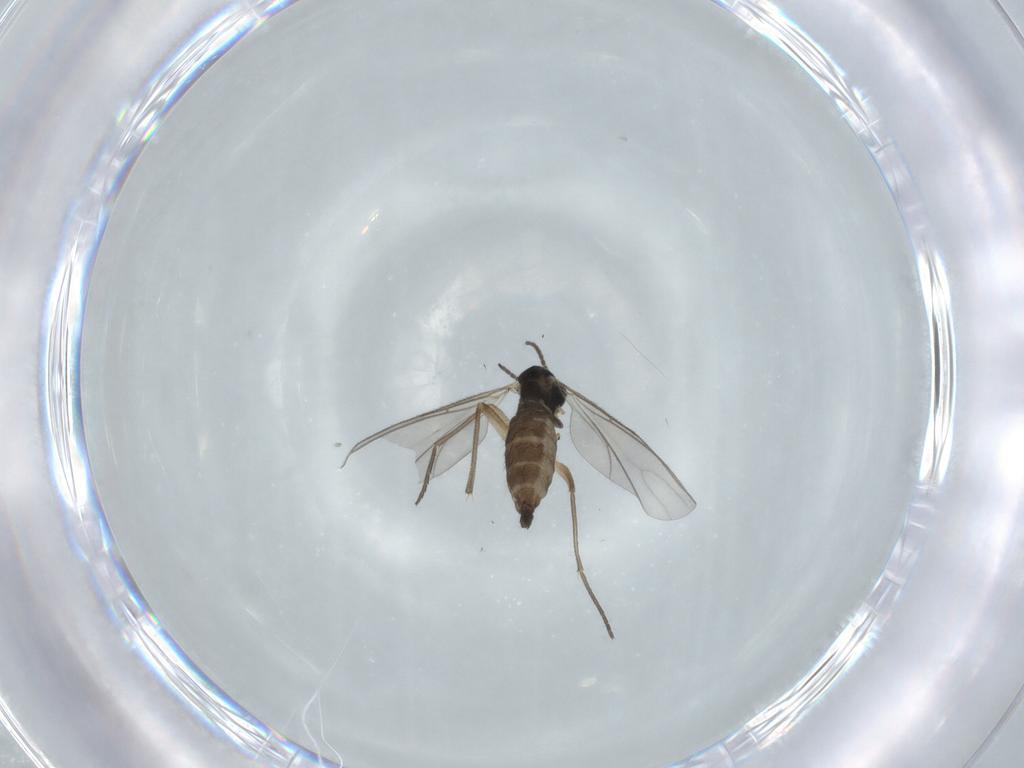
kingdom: Animalia
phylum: Arthropoda
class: Insecta
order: Diptera
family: Sciaridae
